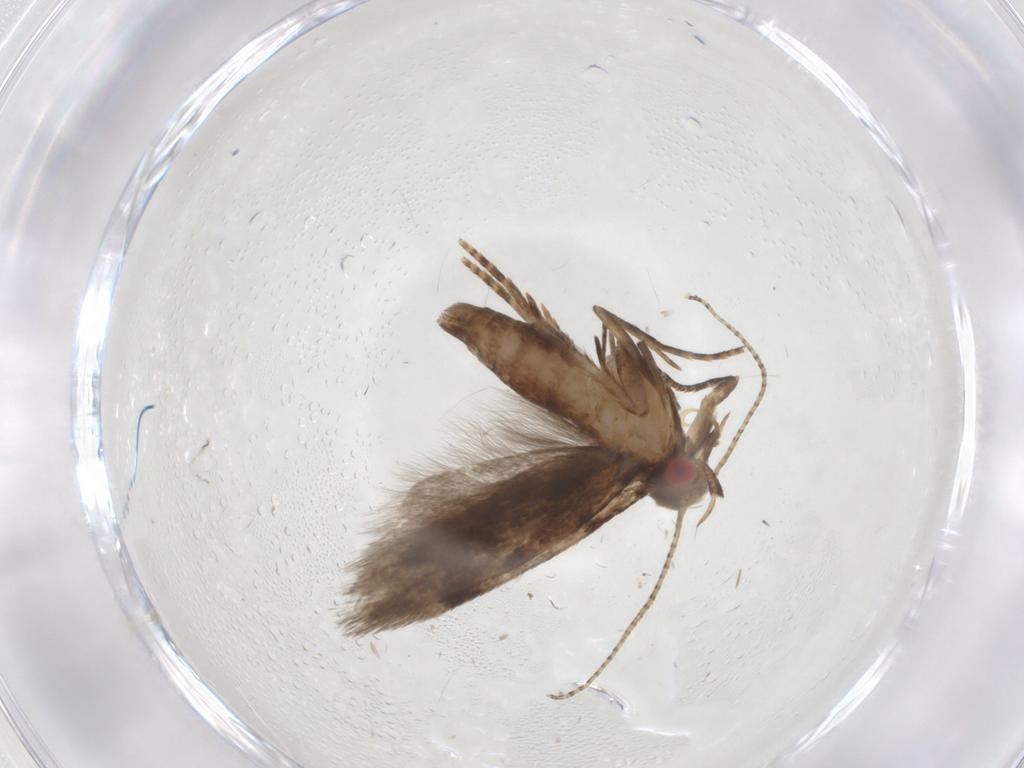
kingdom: Animalia
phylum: Arthropoda
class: Insecta
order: Lepidoptera
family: Gelechiidae
